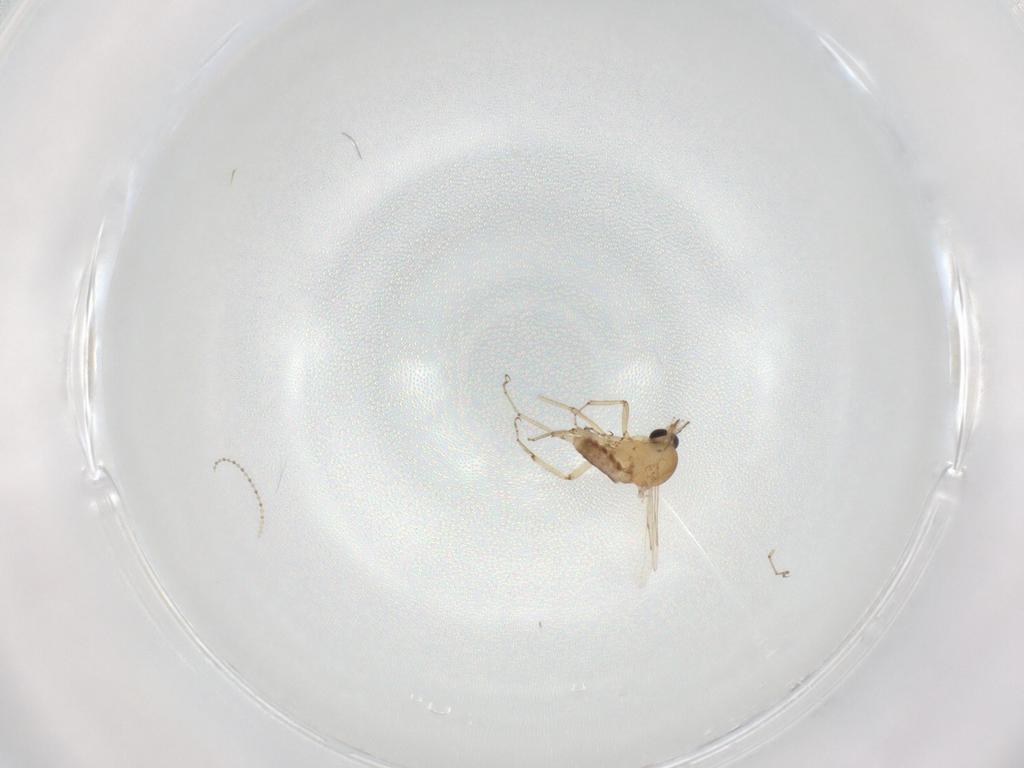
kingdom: Animalia
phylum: Arthropoda
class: Insecta
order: Diptera
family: Ceratopogonidae
